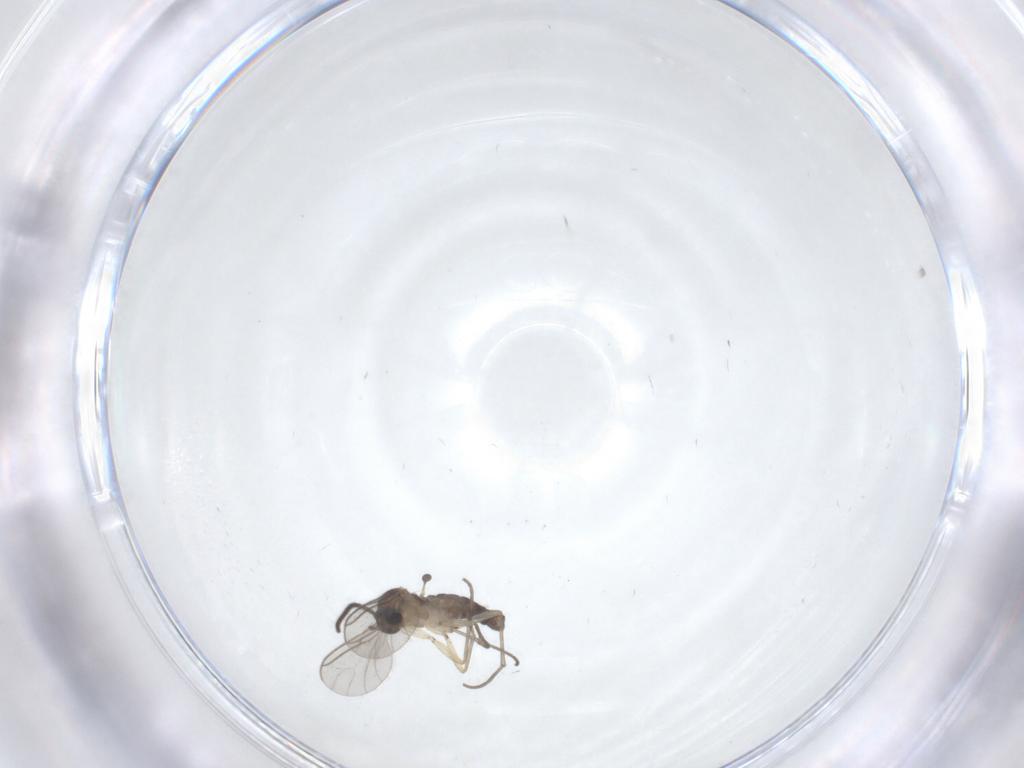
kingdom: Animalia
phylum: Arthropoda
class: Insecta
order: Diptera
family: Sciaridae
